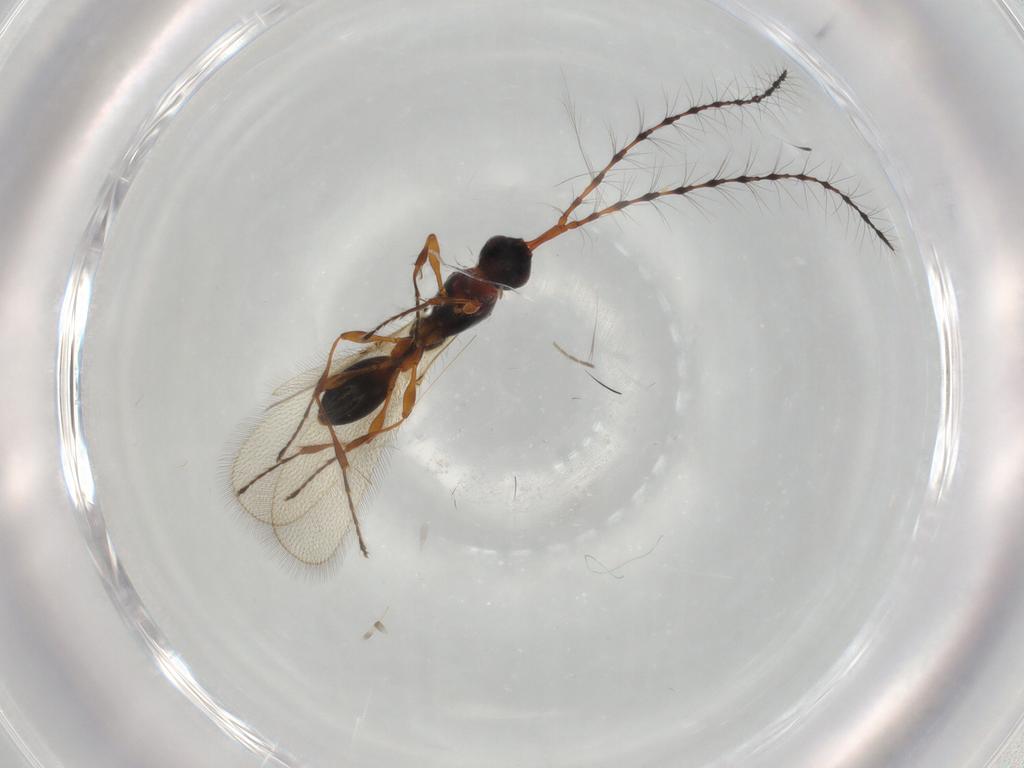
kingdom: Animalia
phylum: Arthropoda
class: Insecta
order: Hymenoptera
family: Diapriidae
